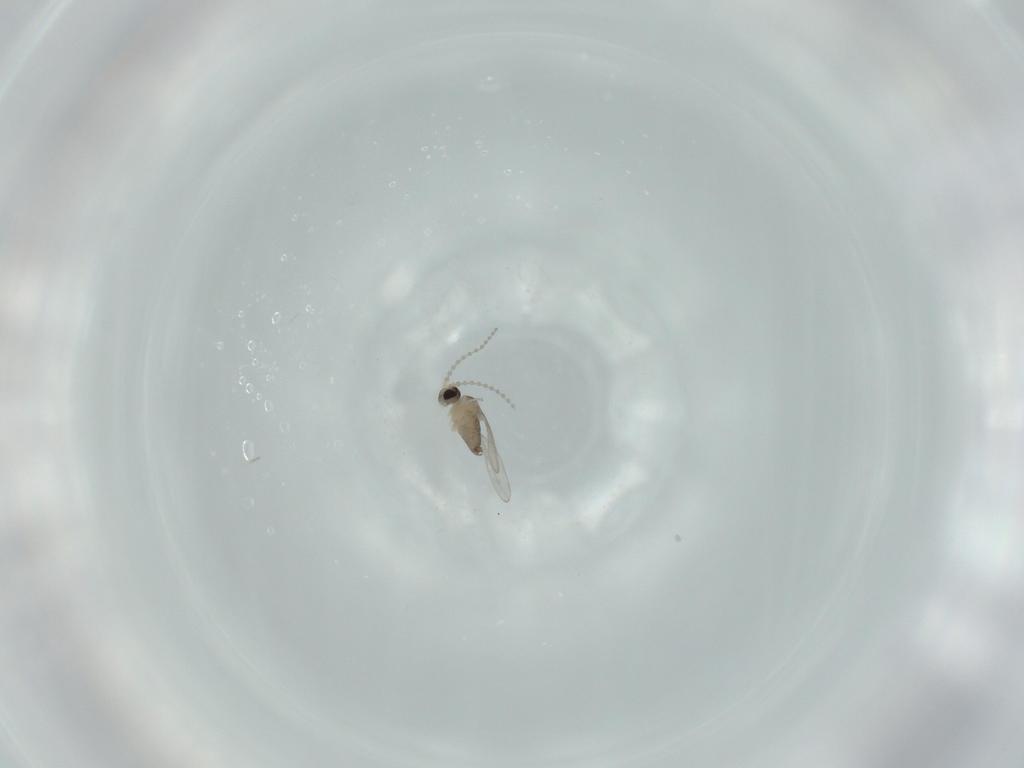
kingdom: Animalia
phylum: Arthropoda
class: Insecta
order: Diptera
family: Cecidomyiidae
